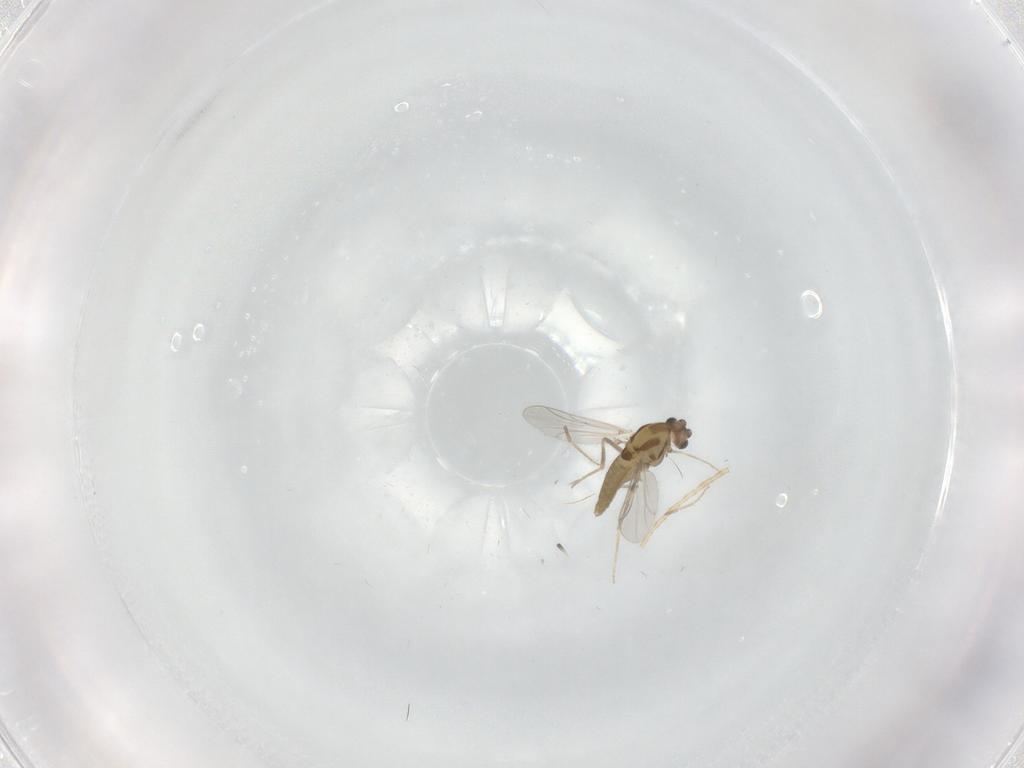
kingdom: Animalia
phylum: Arthropoda
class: Insecta
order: Diptera
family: Chironomidae
